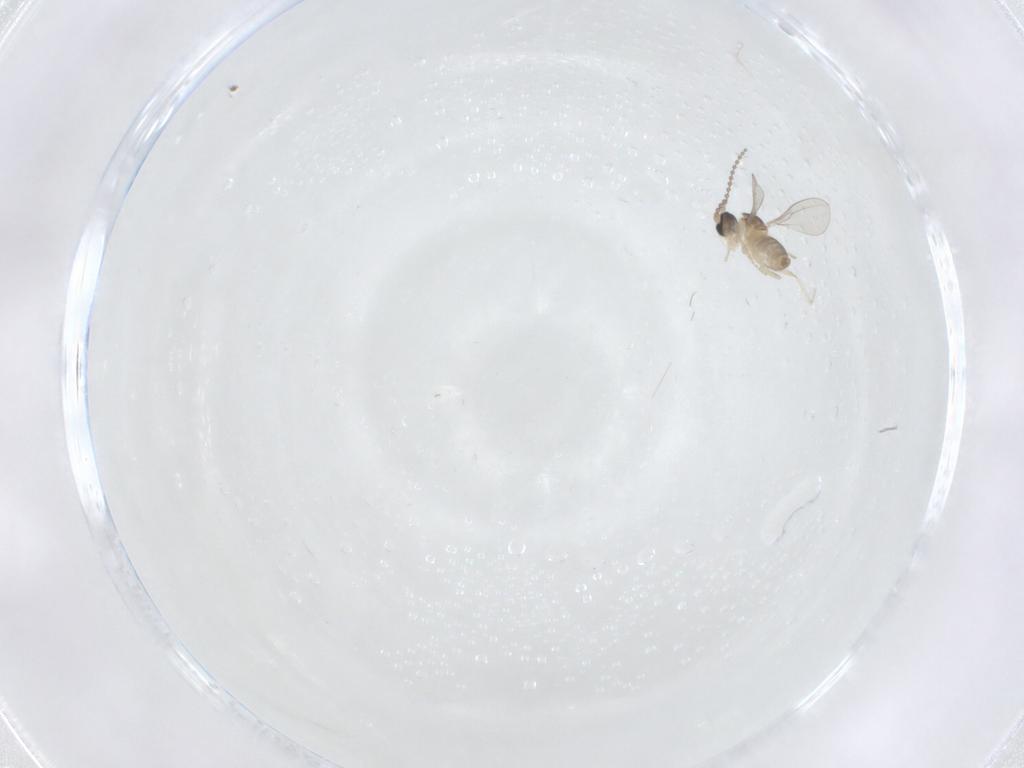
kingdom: Animalia
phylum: Arthropoda
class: Insecta
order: Diptera
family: Cecidomyiidae
